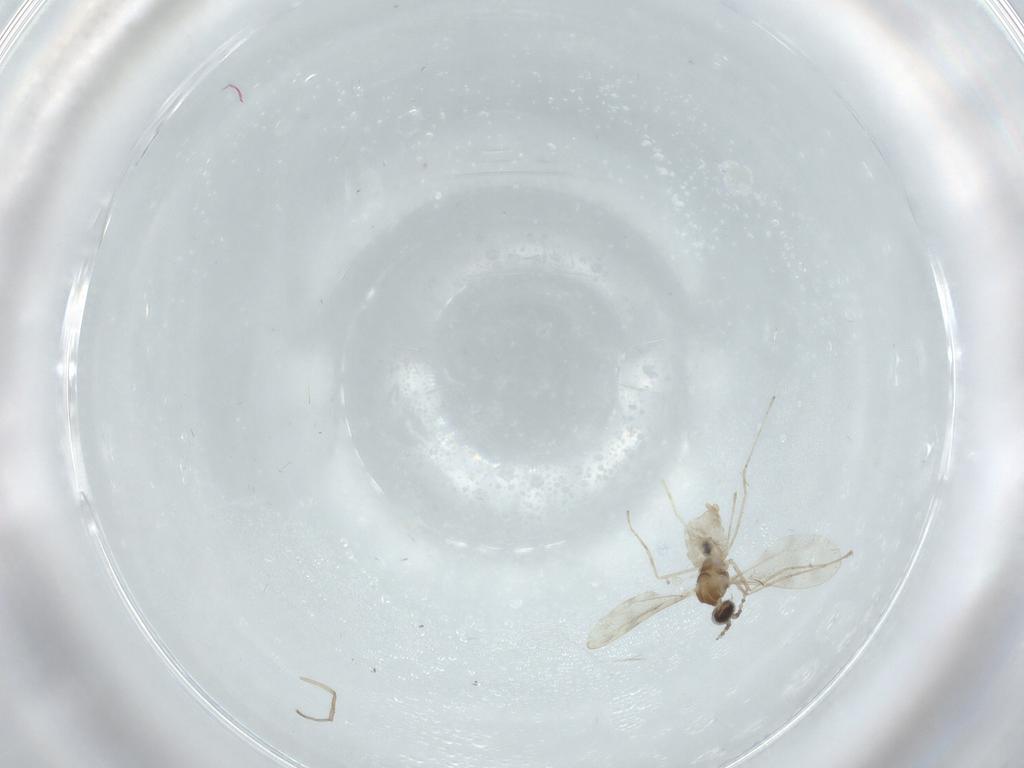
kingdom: Animalia
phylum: Arthropoda
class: Insecta
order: Diptera
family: Cecidomyiidae
